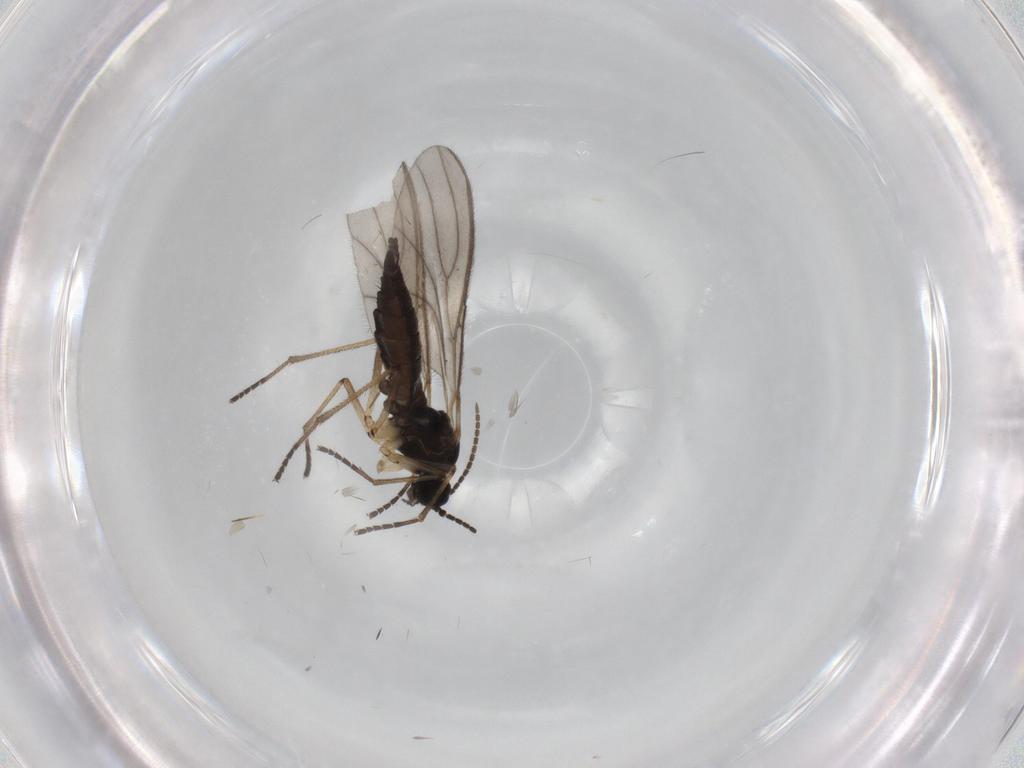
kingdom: Animalia
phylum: Arthropoda
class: Insecta
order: Diptera
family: Sciaridae
